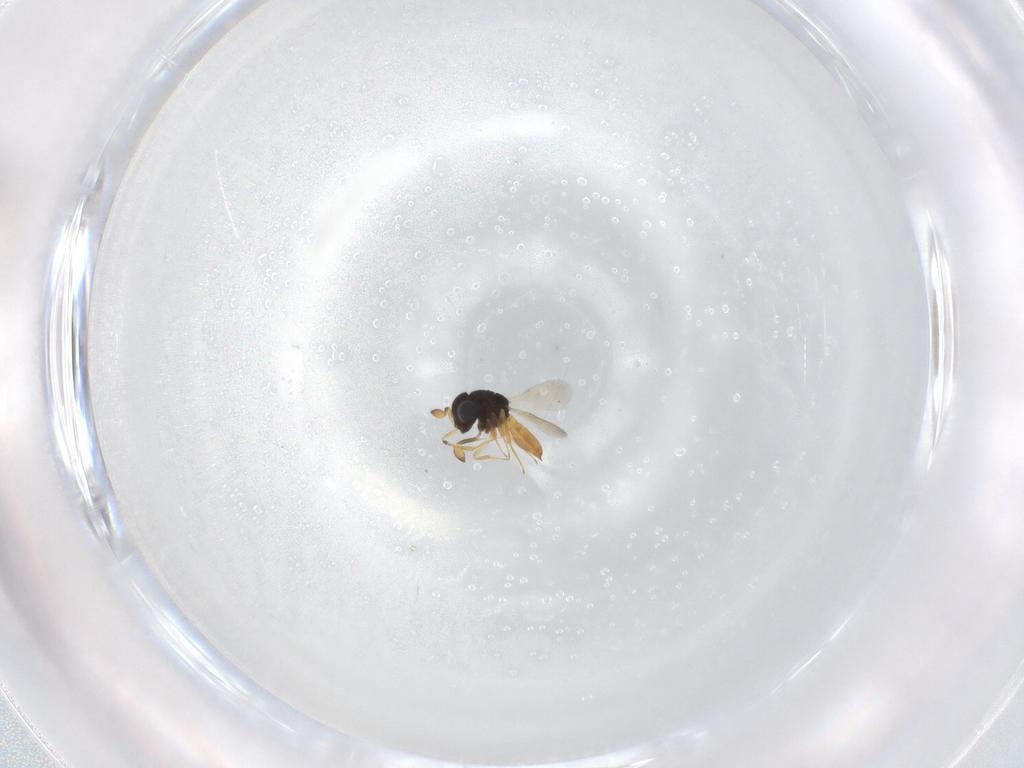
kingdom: Animalia
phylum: Arthropoda
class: Insecta
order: Hymenoptera
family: Scelionidae
